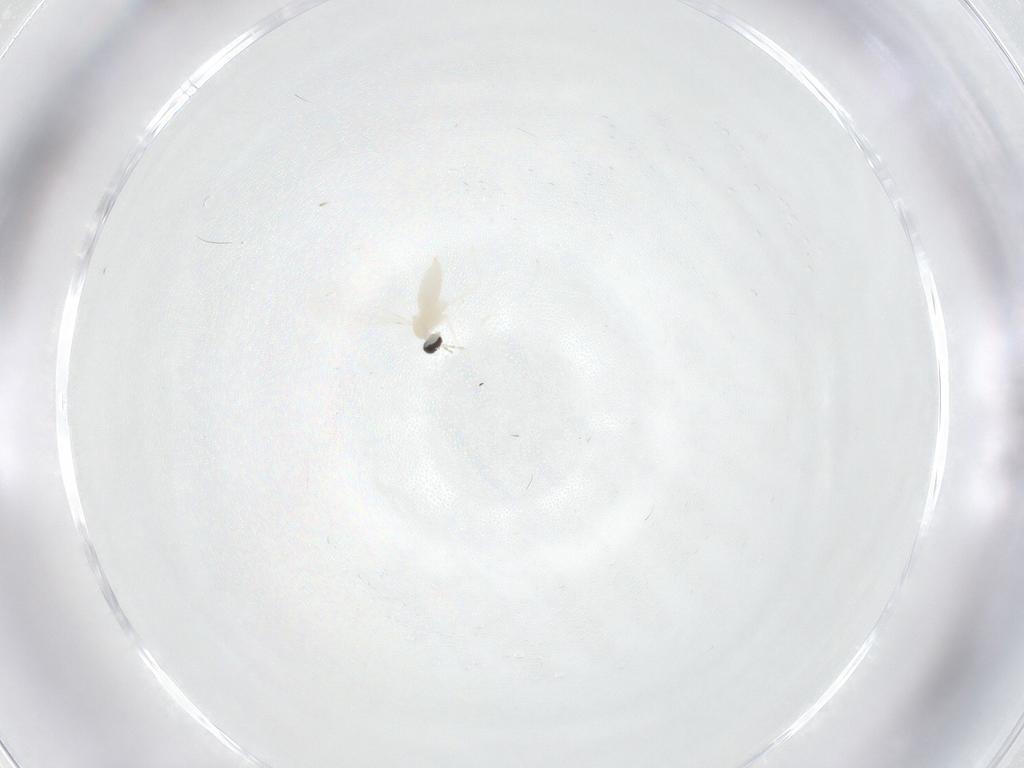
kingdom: Animalia
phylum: Arthropoda
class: Insecta
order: Diptera
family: Cecidomyiidae
